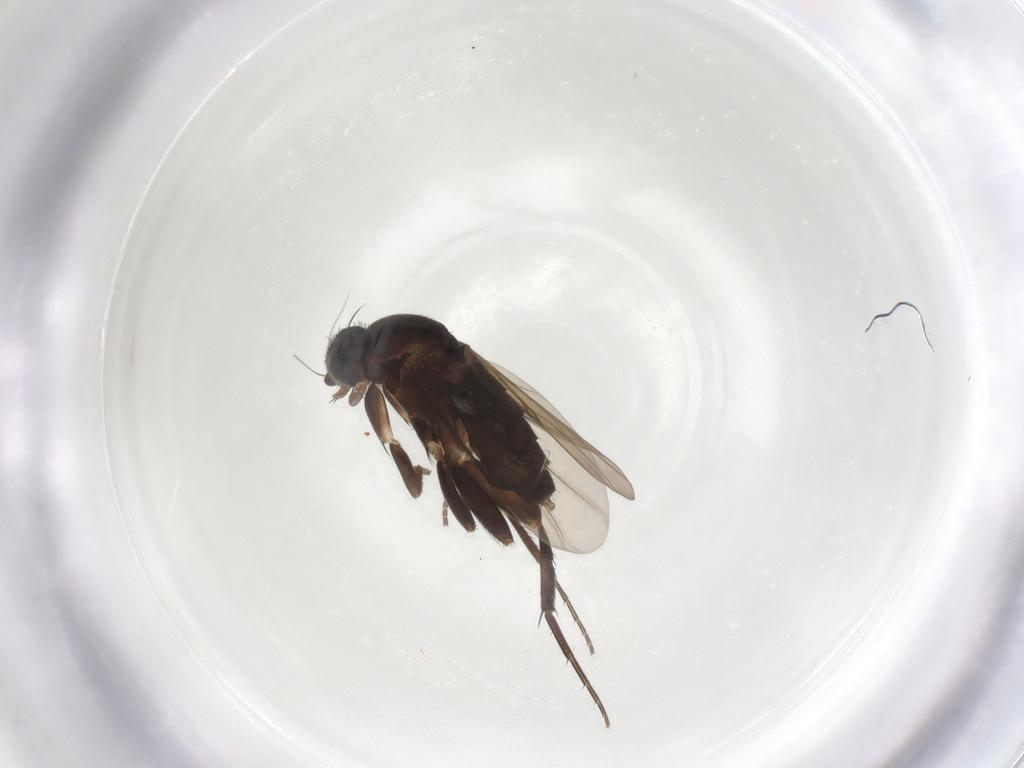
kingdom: Animalia
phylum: Arthropoda
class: Insecta
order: Diptera
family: Phoridae
